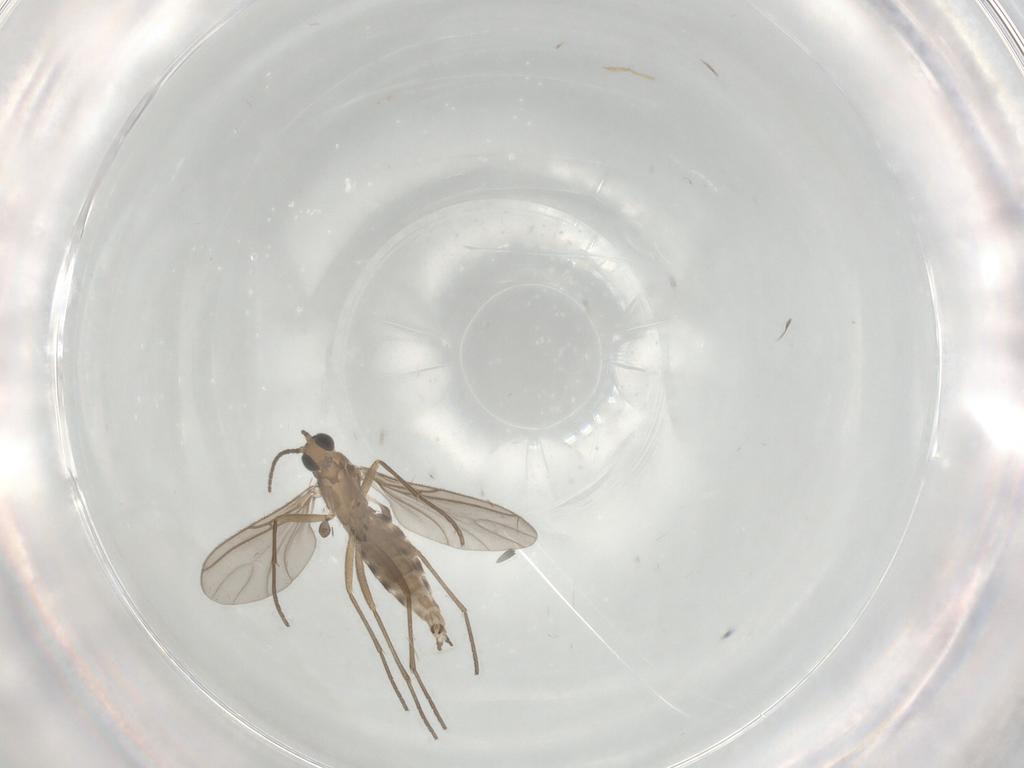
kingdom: Animalia
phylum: Arthropoda
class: Insecta
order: Diptera
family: Sciaridae
